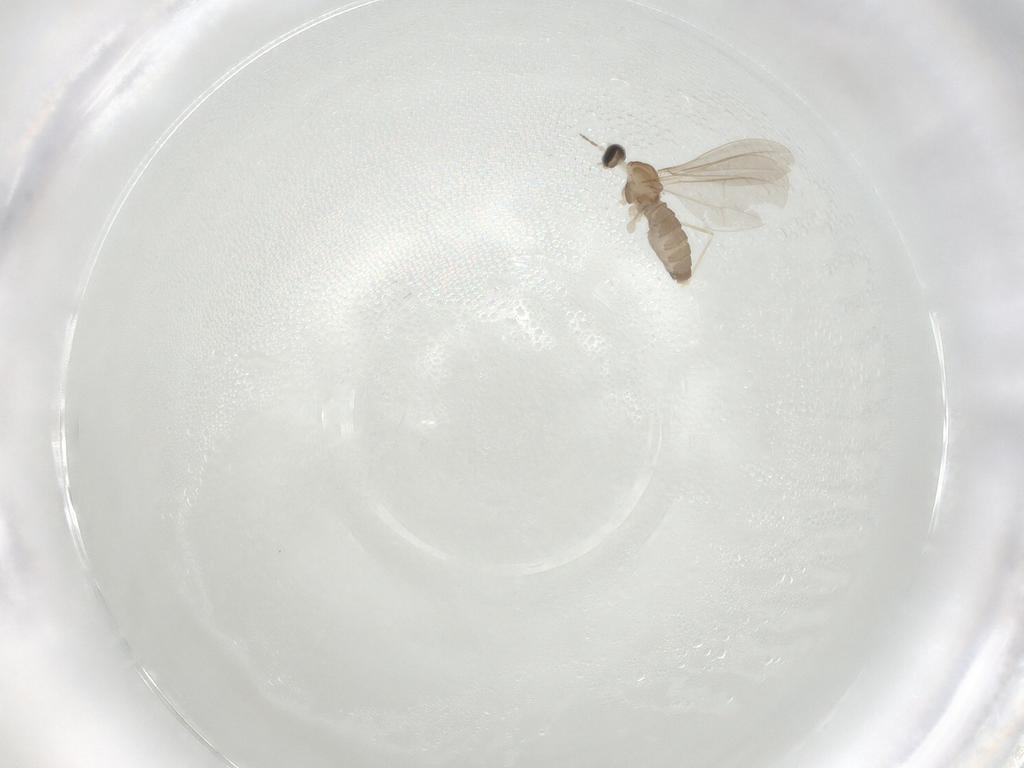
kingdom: Animalia
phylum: Arthropoda
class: Insecta
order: Diptera
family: Cecidomyiidae
